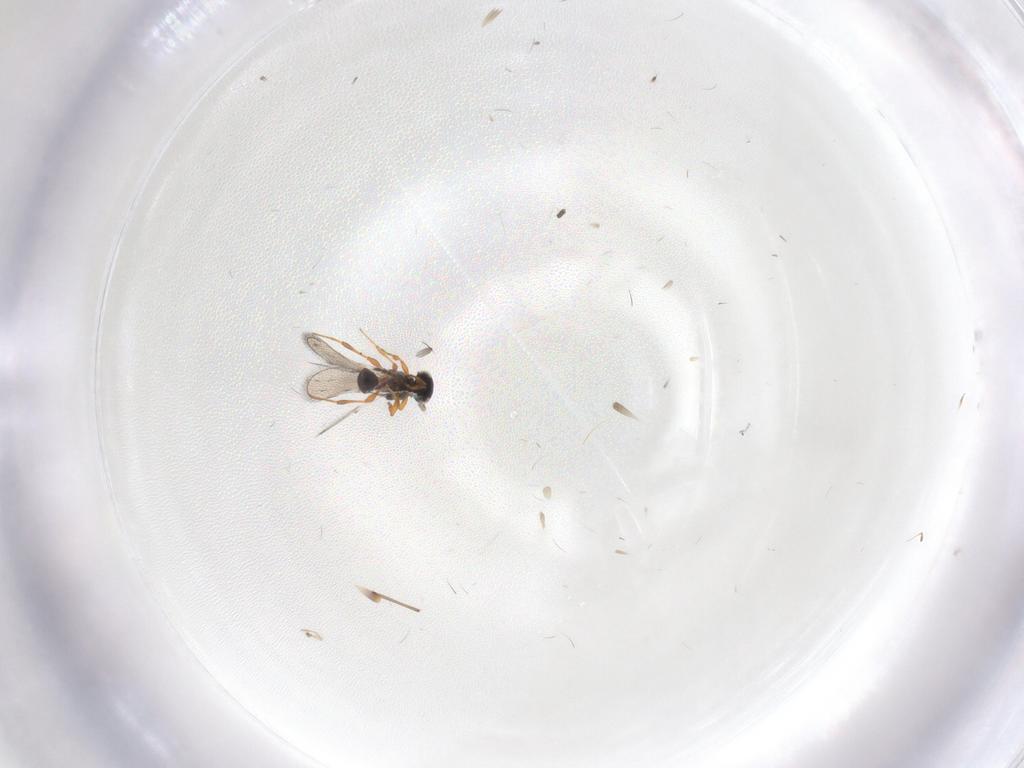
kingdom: Animalia
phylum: Arthropoda
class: Insecta
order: Hymenoptera
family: Platygastridae
